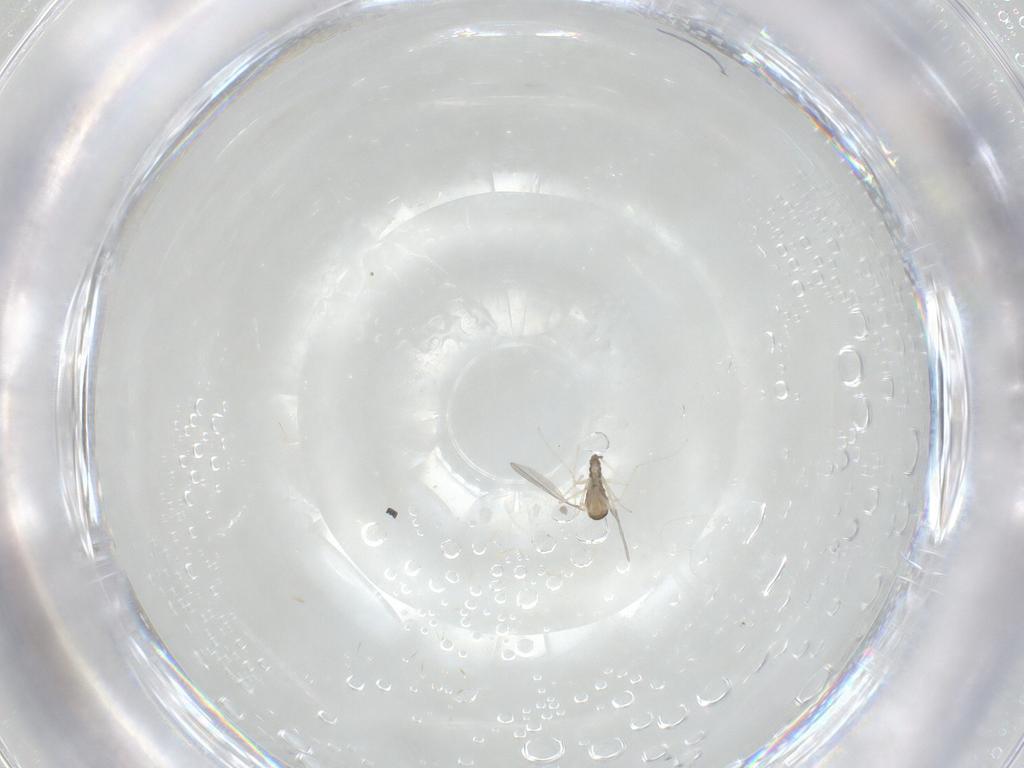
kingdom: Animalia
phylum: Arthropoda
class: Insecta
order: Diptera
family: Cecidomyiidae
